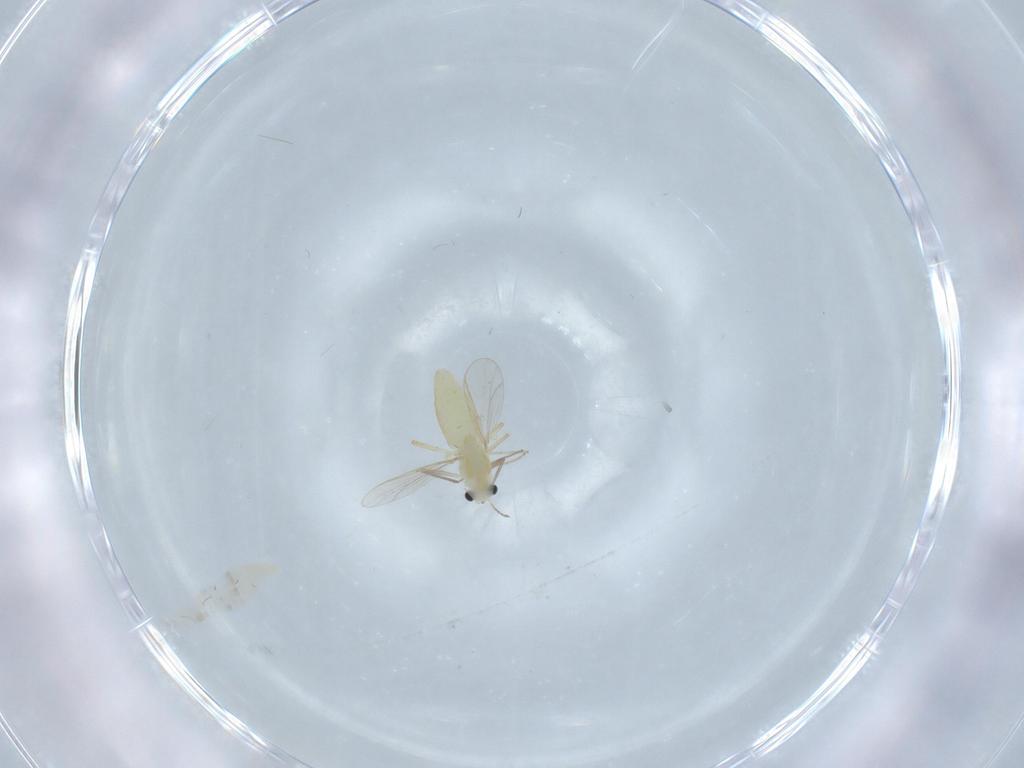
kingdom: Animalia
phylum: Arthropoda
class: Insecta
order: Diptera
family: Chironomidae
